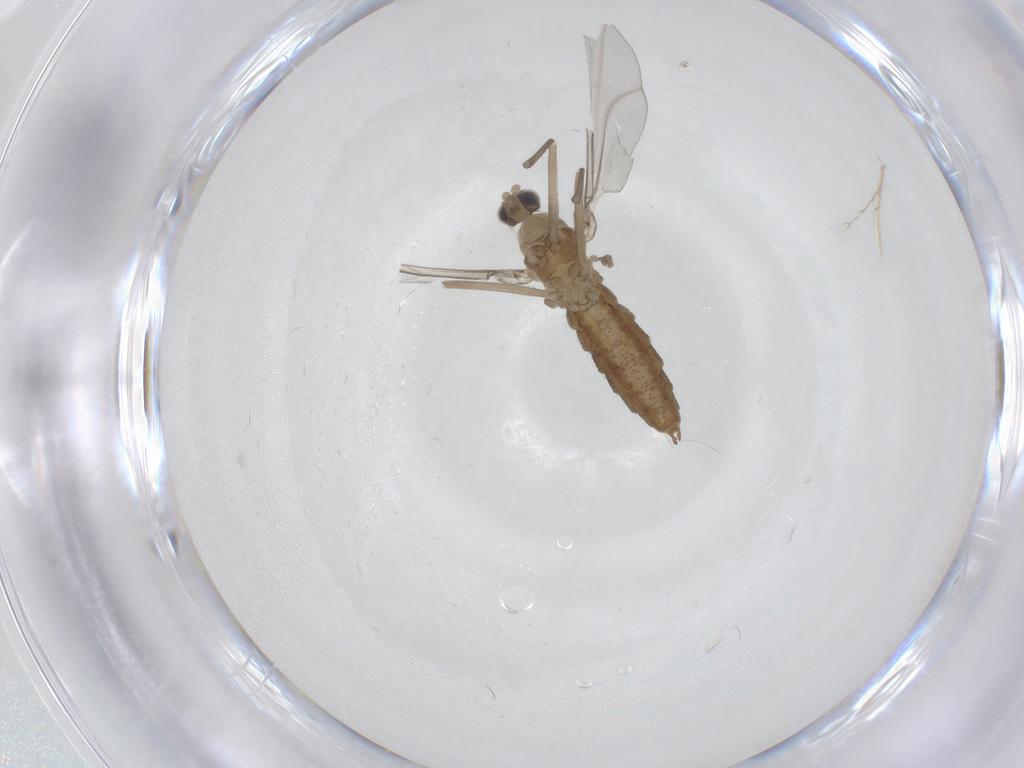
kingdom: Animalia
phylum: Arthropoda
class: Insecta
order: Diptera
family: Cecidomyiidae
